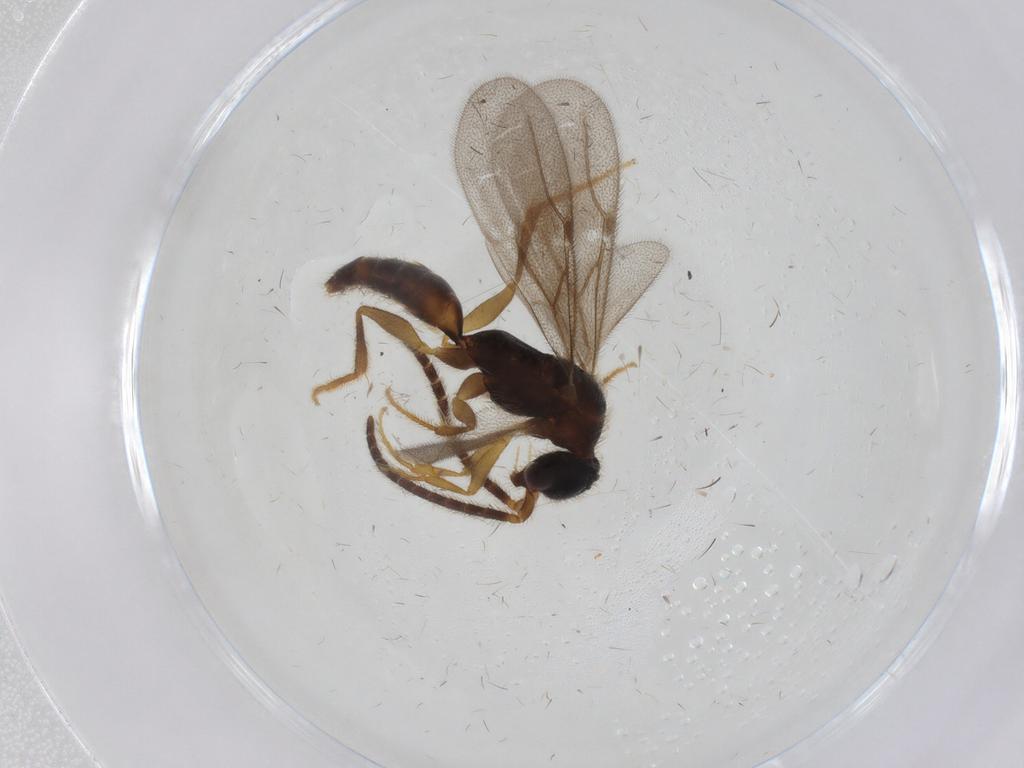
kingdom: Animalia
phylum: Arthropoda
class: Insecta
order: Hymenoptera
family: Bethylidae
